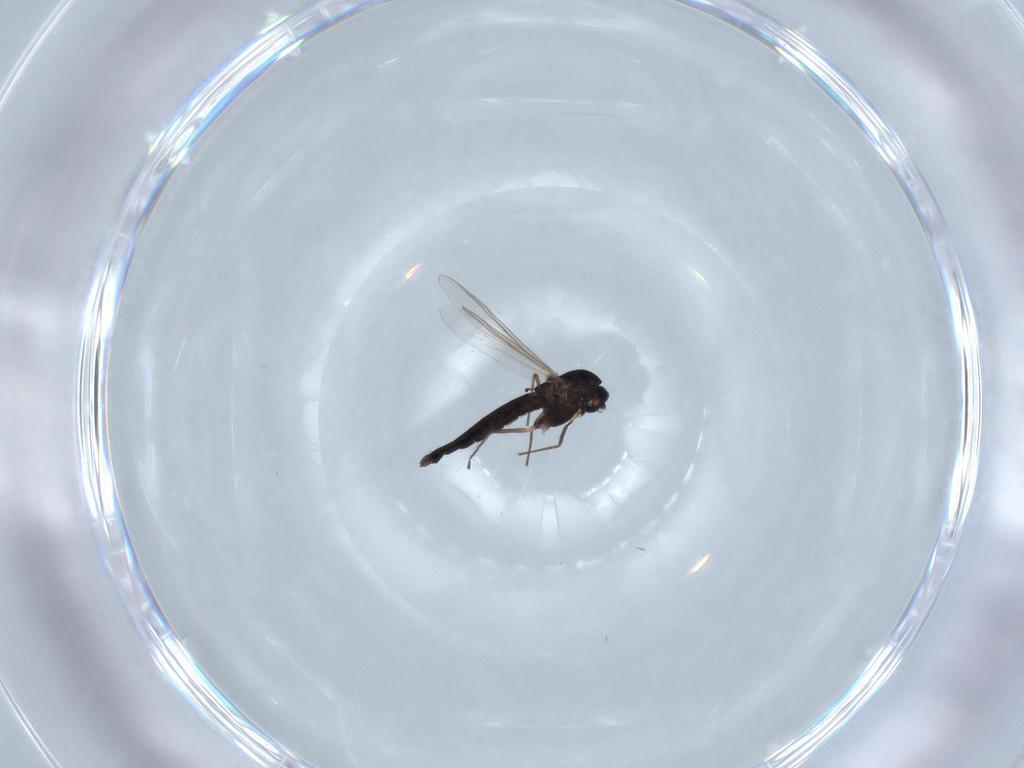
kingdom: Animalia
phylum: Arthropoda
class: Insecta
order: Diptera
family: Chironomidae
